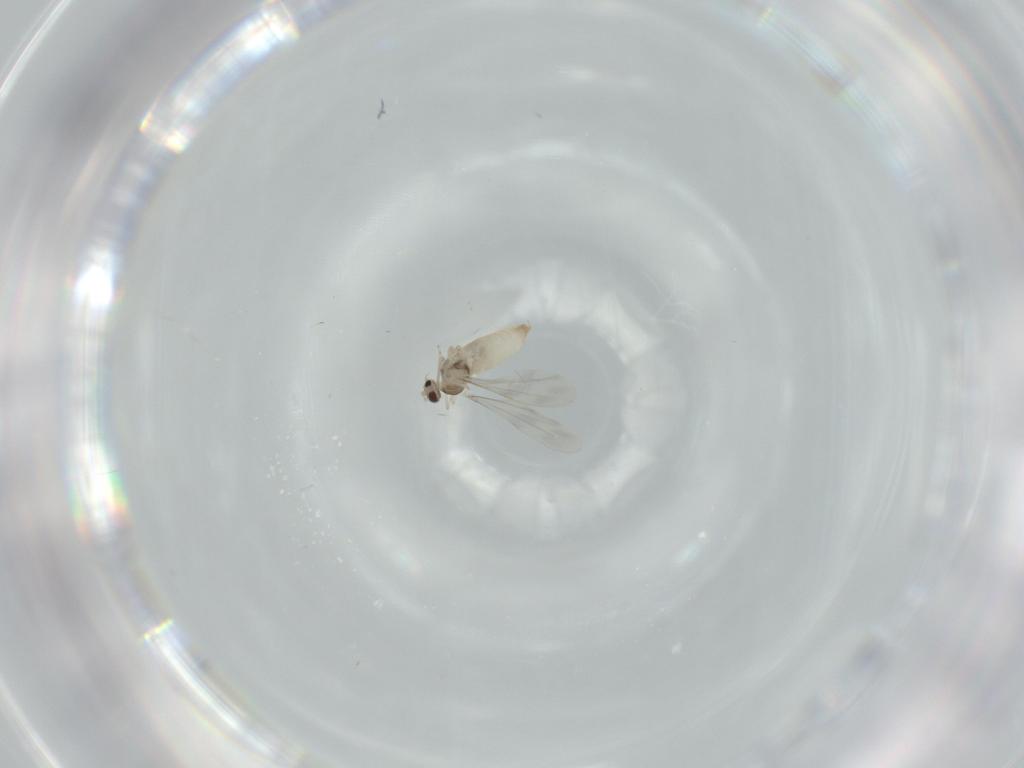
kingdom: Animalia
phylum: Arthropoda
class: Insecta
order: Diptera
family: Cecidomyiidae
